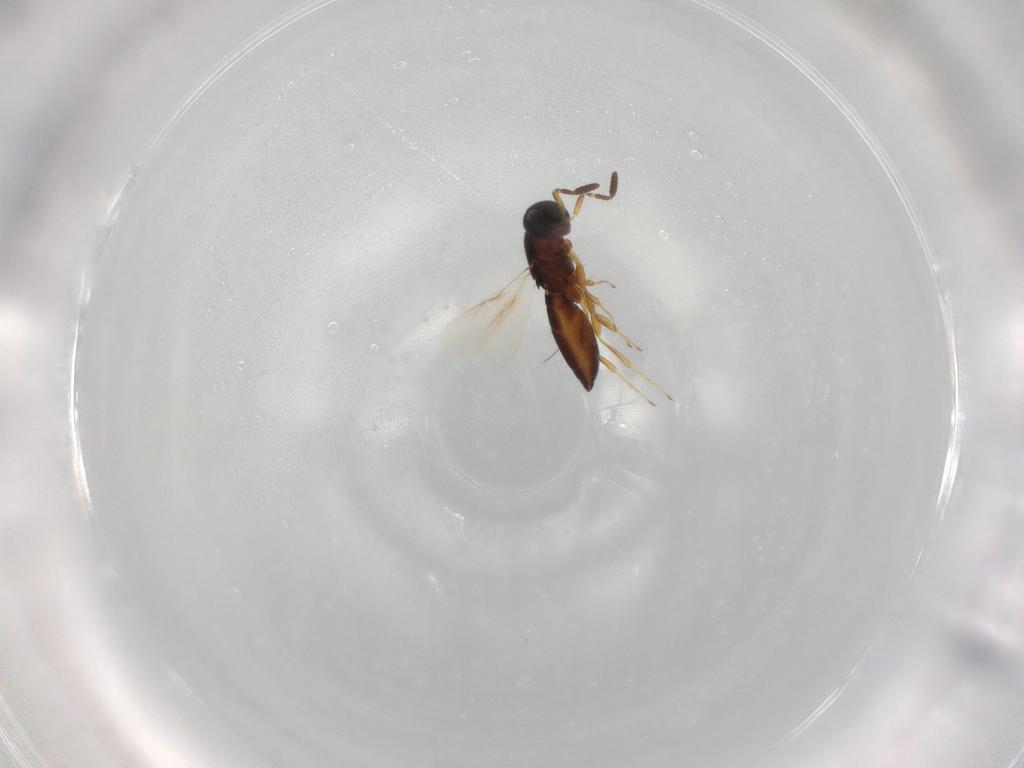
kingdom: Animalia
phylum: Arthropoda
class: Insecta
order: Hymenoptera
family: Scelionidae
